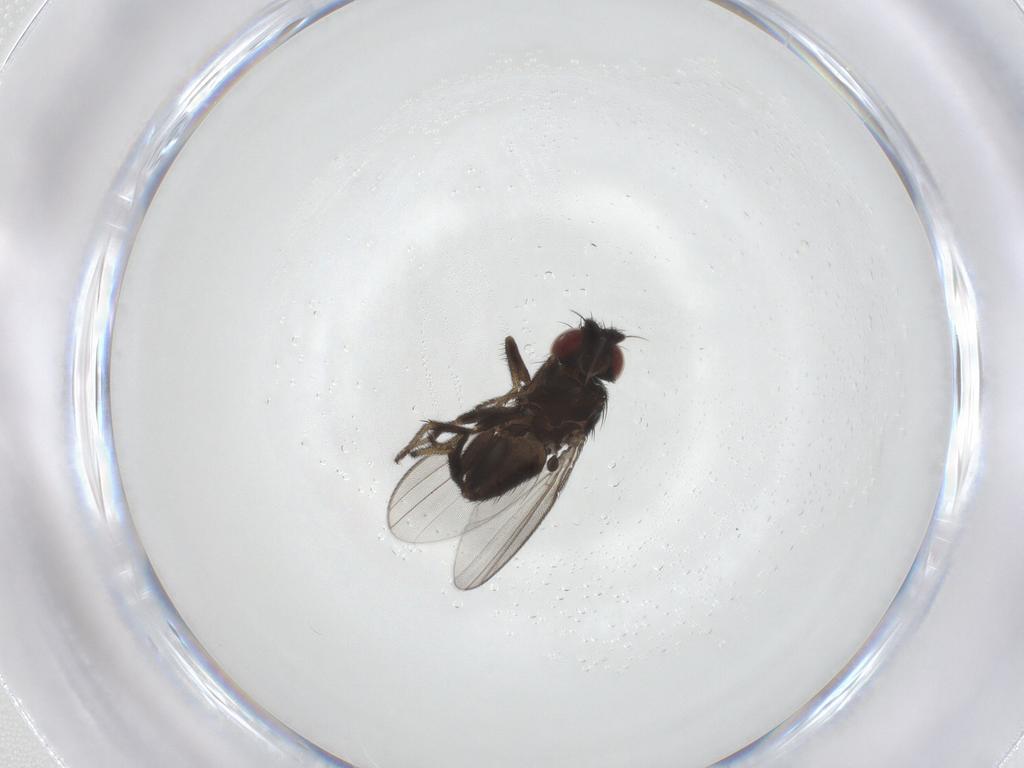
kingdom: Animalia
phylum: Arthropoda
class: Insecta
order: Diptera
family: Milichiidae
